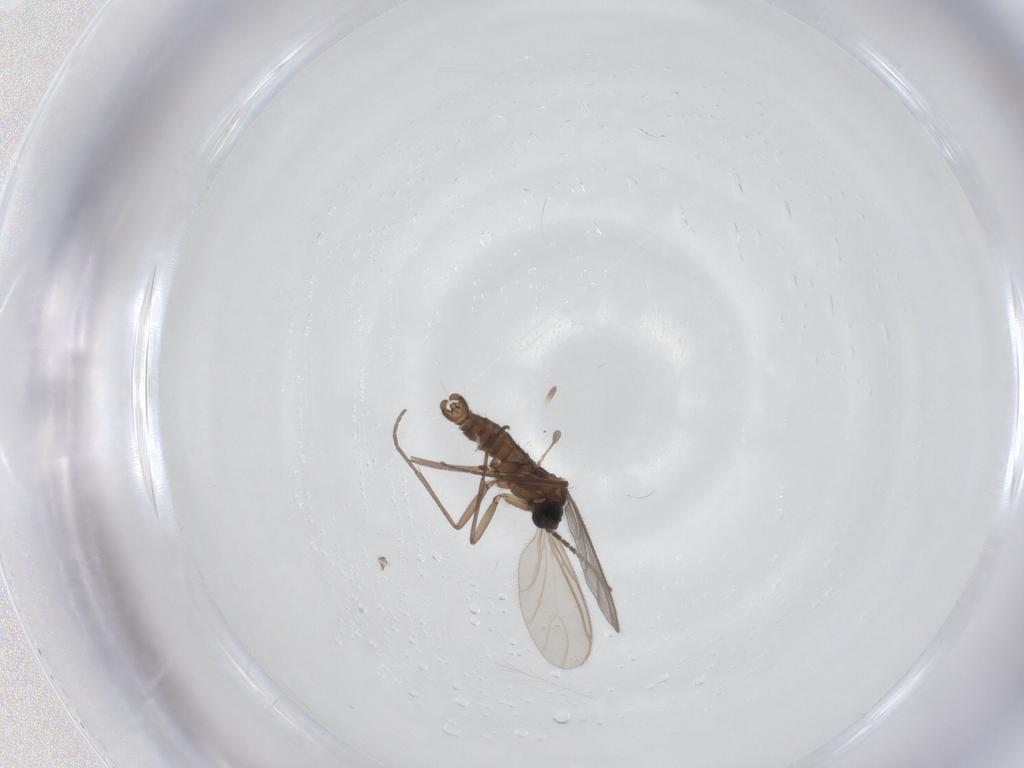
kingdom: Animalia
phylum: Arthropoda
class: Insecta
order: Diptera
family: Sciaridae
